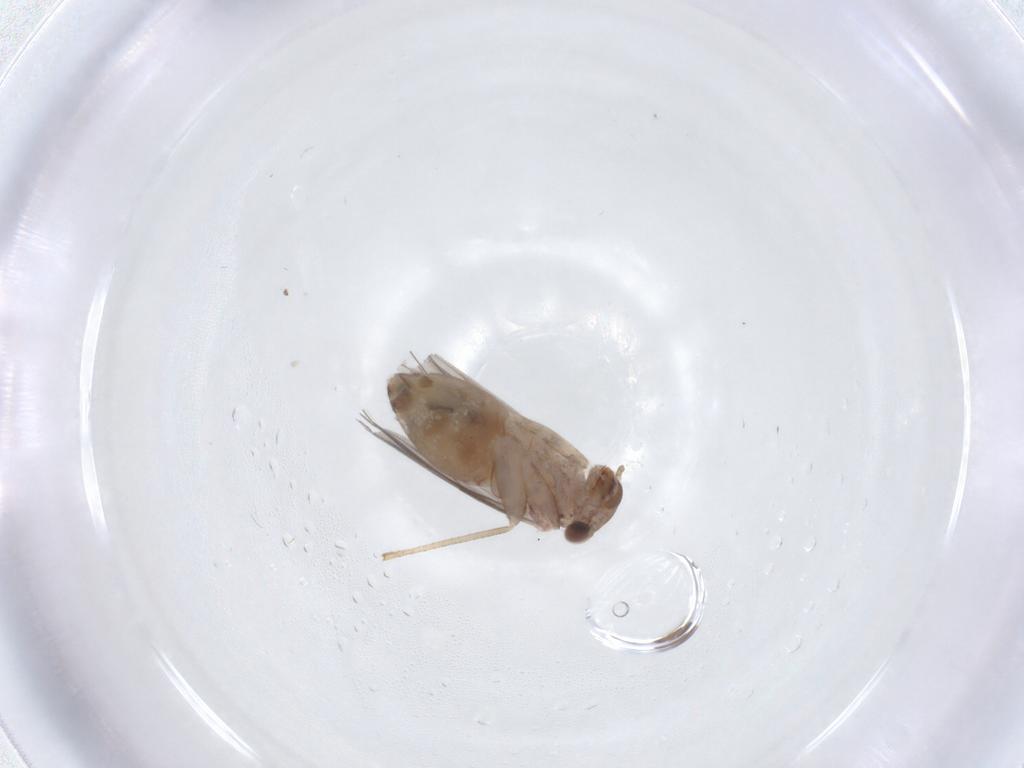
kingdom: Animalia
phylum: Arthropoda
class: Insecta
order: Psocodea
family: Lepidopsocidae
